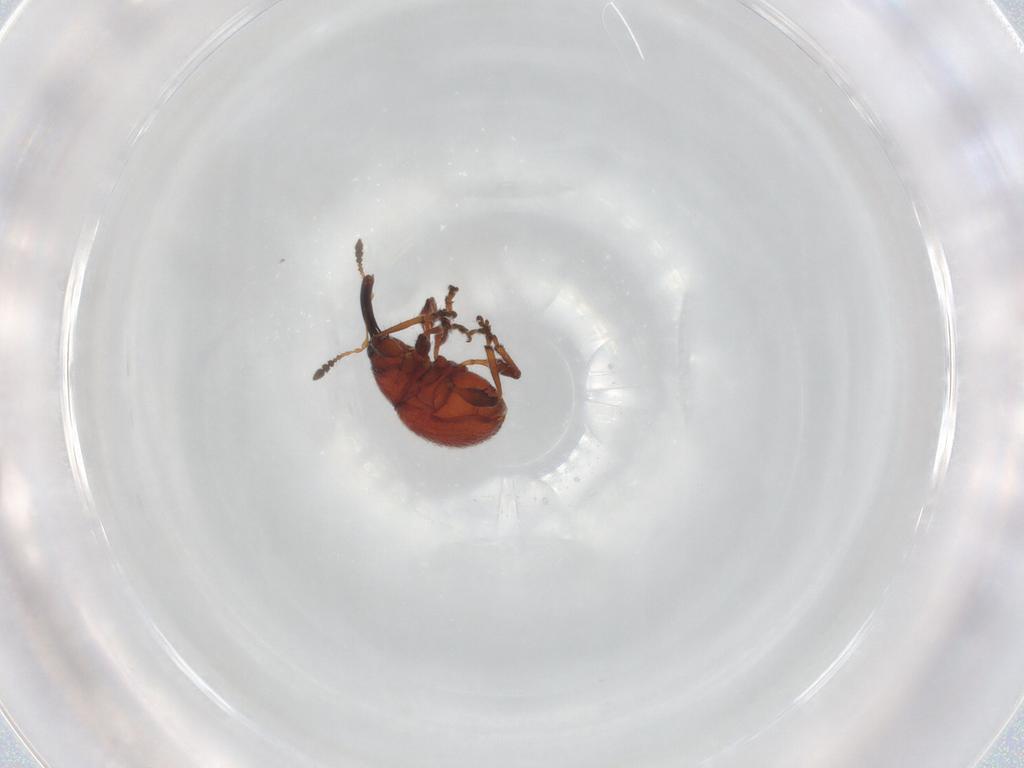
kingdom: Animalia
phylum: Arthropoda
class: Insecta
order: Coleoptera
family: Brentidae
